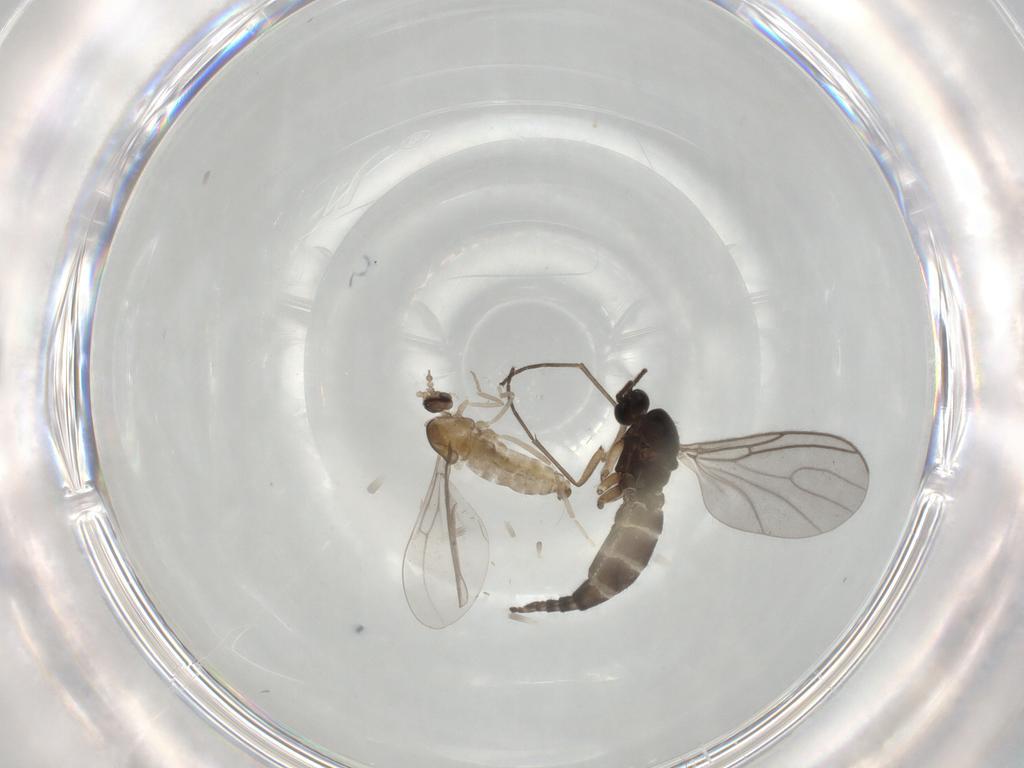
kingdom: Animalia
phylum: Arthropoda
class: Insecta
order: Diptera
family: Cecidomyiidae
